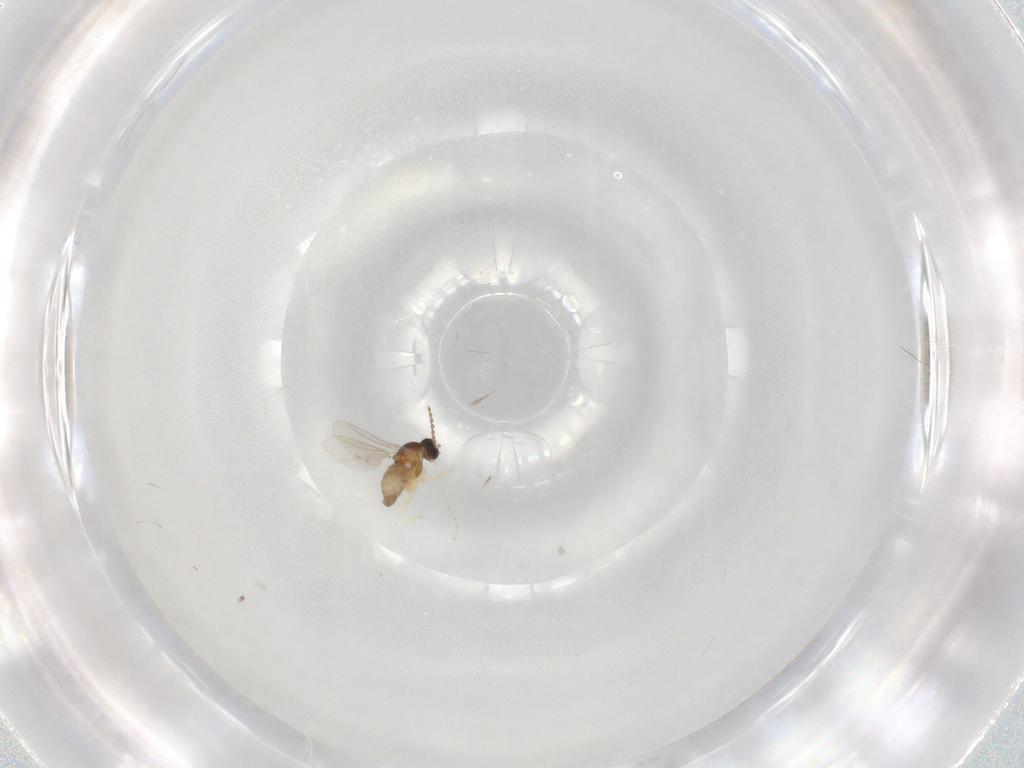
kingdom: Animalia
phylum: Arthropoda
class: Insecta
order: Diptera
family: Cecidomyiidae
